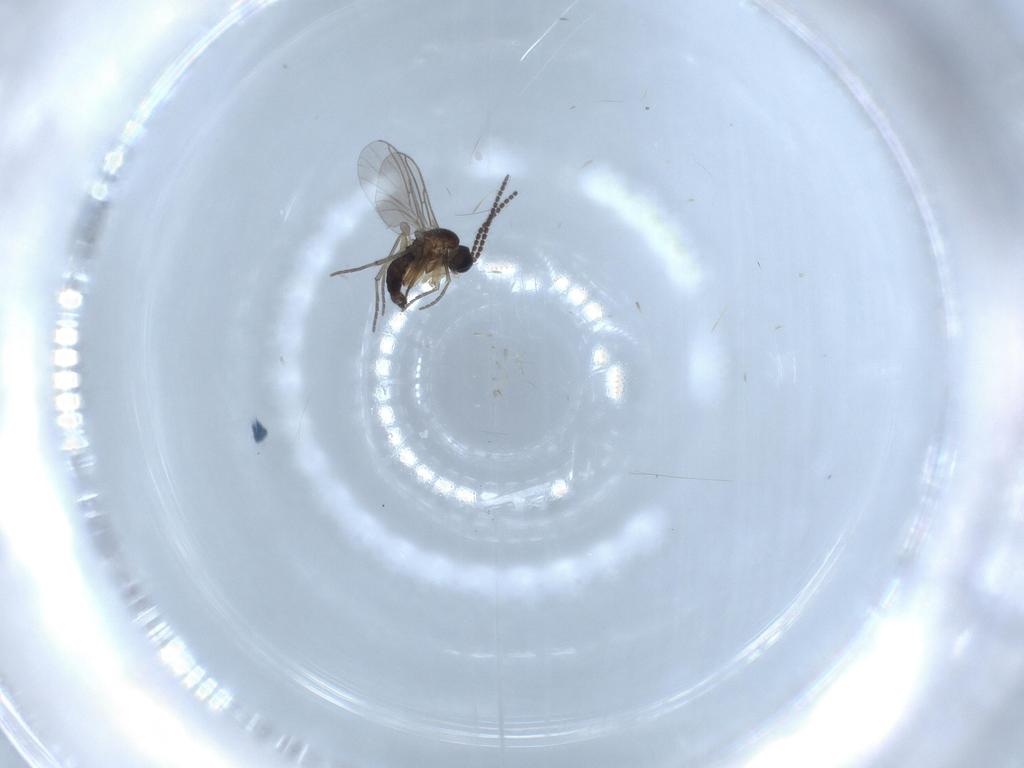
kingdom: Animalia
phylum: Arthropoda
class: Insecta
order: Diptera
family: Sciaridae
